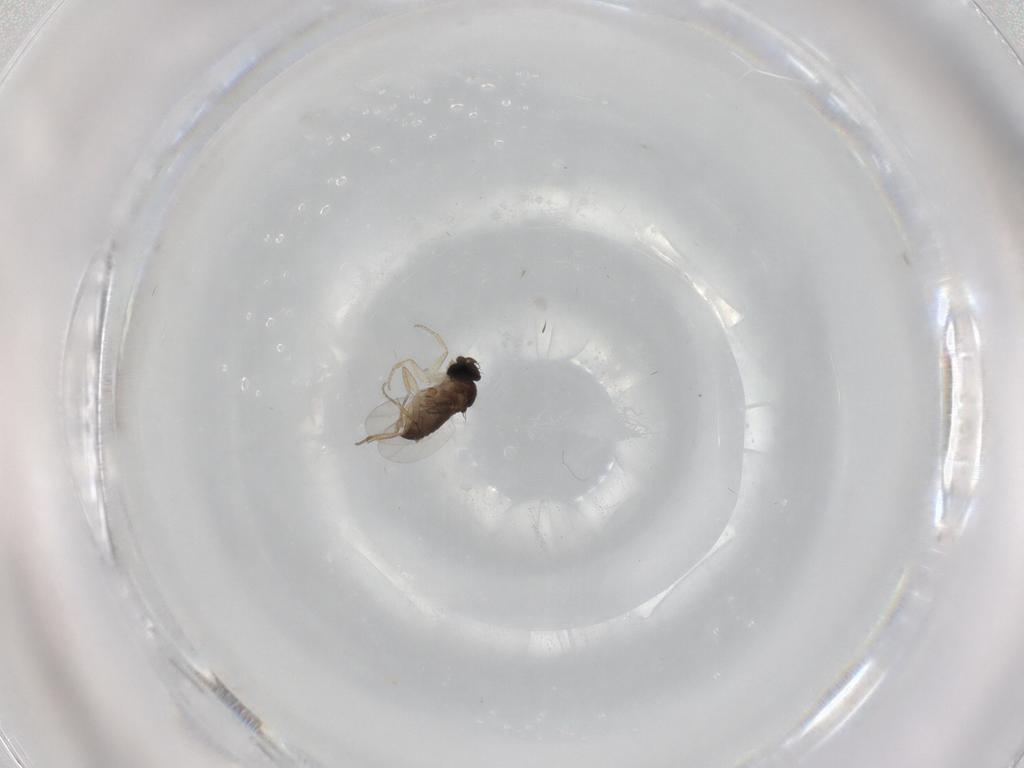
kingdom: Animalia
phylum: Arthropoda
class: Insecta
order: Diptera
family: Phoridae
